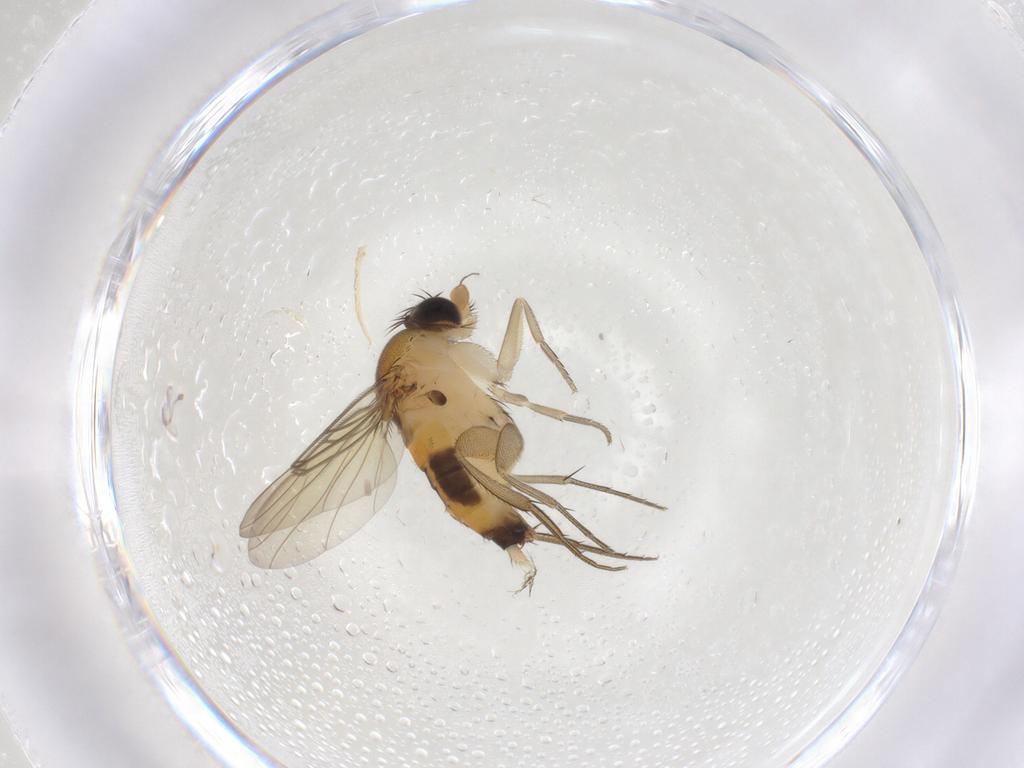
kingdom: Animalia
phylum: Arthropoda
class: Insecta
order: Diptera
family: Phoridae
